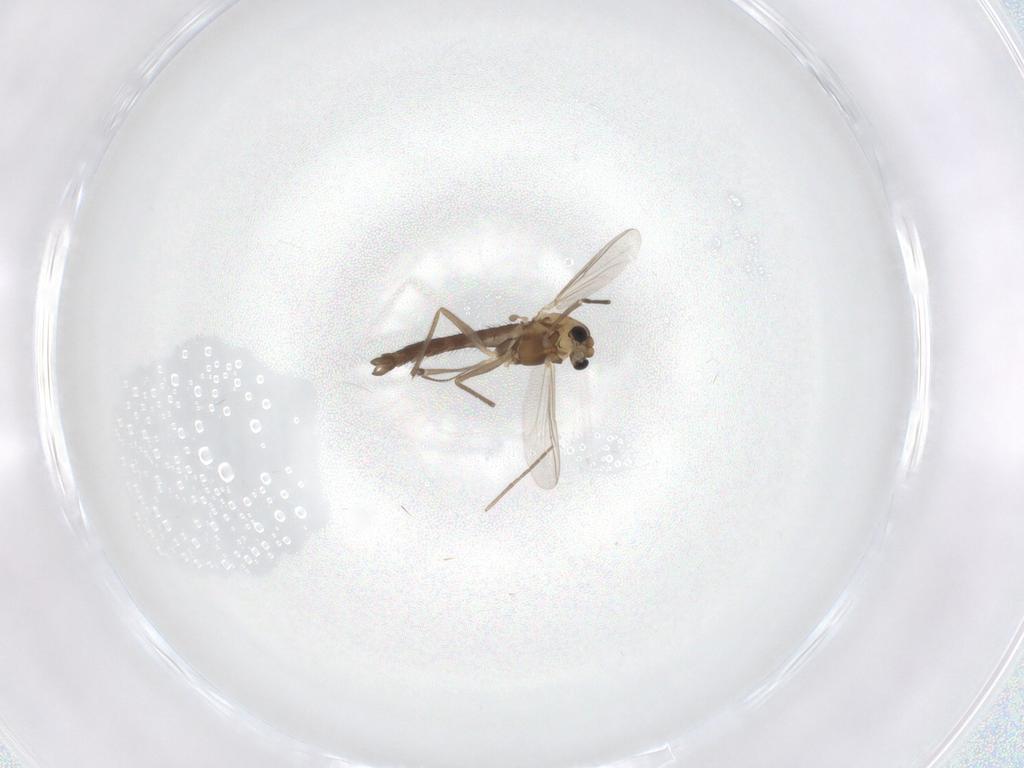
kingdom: Animalia
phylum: Arthropoda
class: Insecta
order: Diptera
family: Chironomidae
